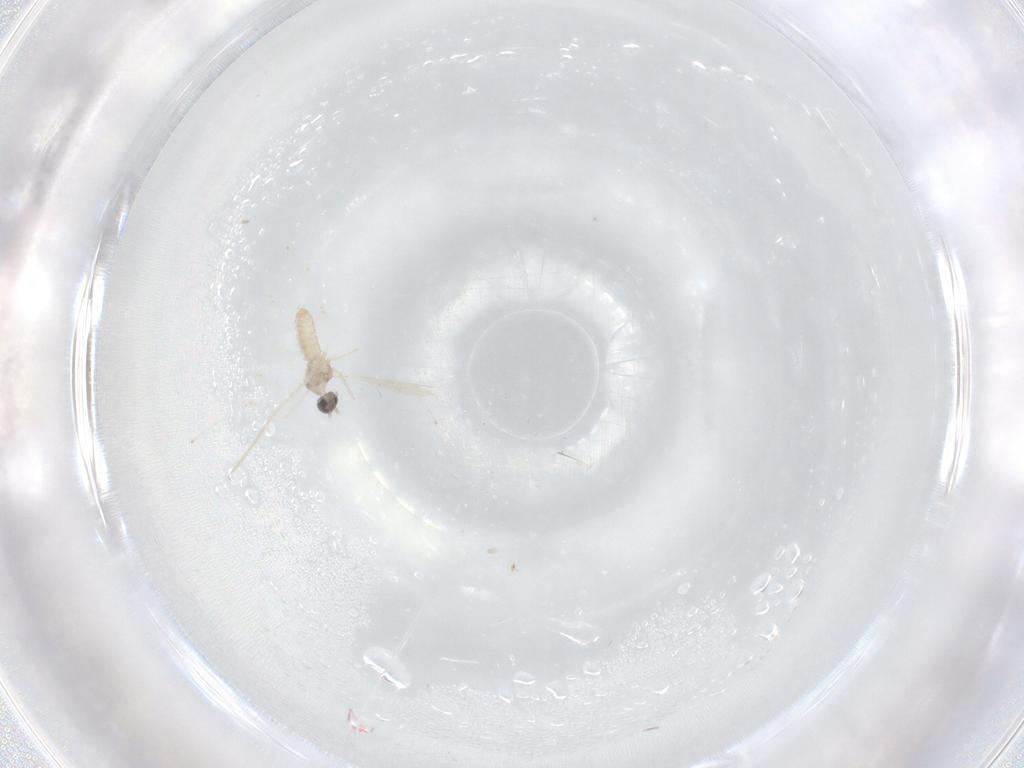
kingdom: Animalia
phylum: Arthropoda
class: Insecta
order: Diptera
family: Cecidomyiidae
